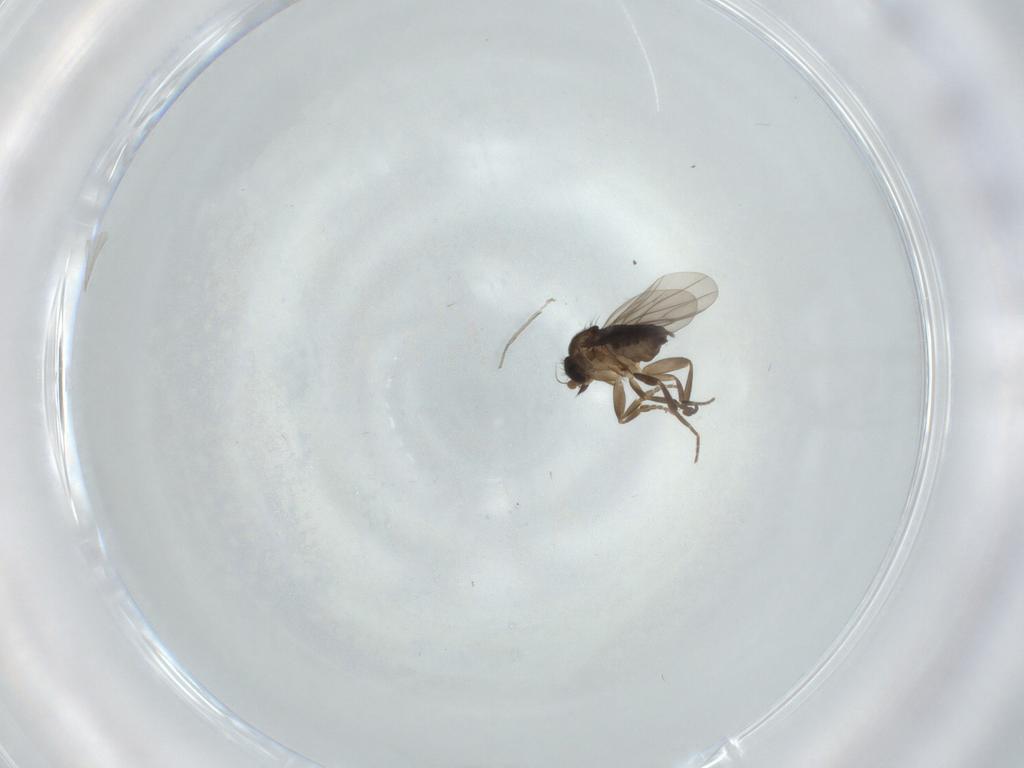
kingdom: Animalia
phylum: Arthropoda
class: Insecta
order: Diptera
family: Phoridae
